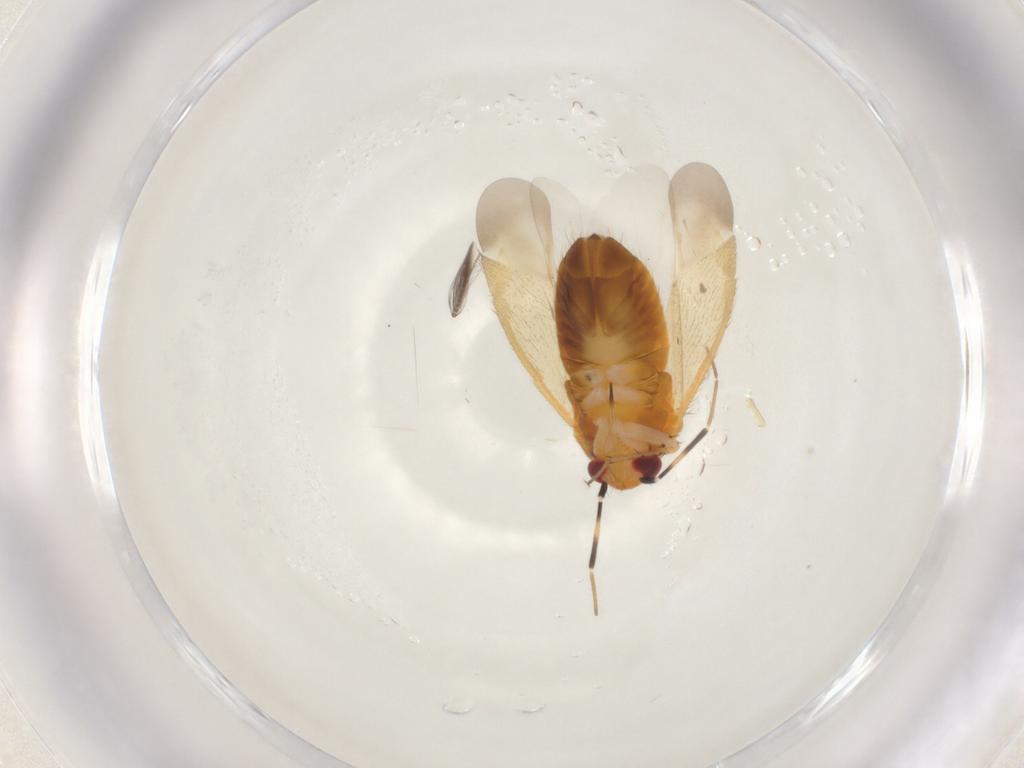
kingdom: Animalia
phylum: Arthropoda
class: Insecta
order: Hemiptera
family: Miridae
